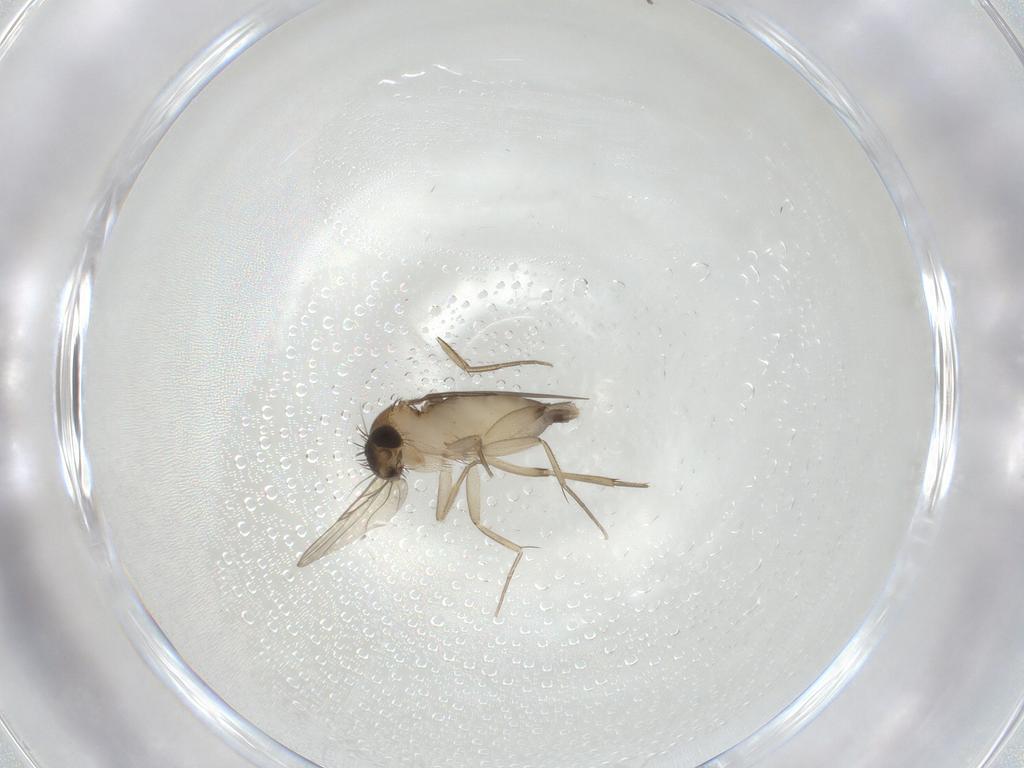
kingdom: Animalia
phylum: Arthropoda
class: Insecta
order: Diptera
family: Phoridae
